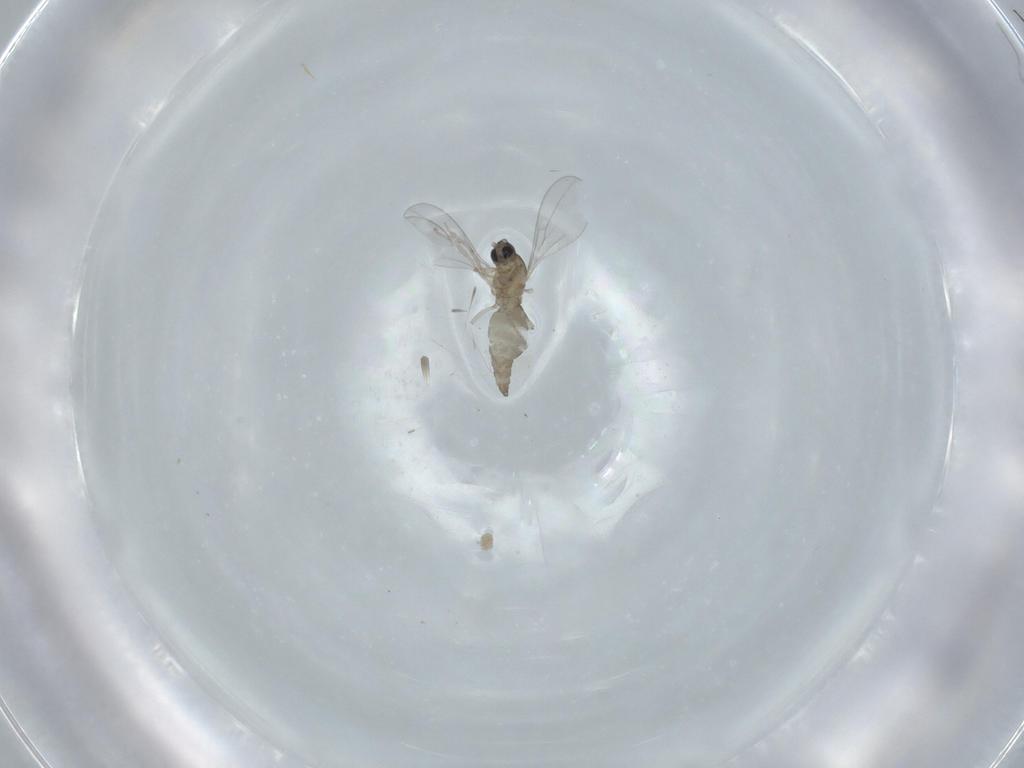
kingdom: Animalia
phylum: Arthropoda
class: Insecta
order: Diptera
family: Cecidomyiidae
